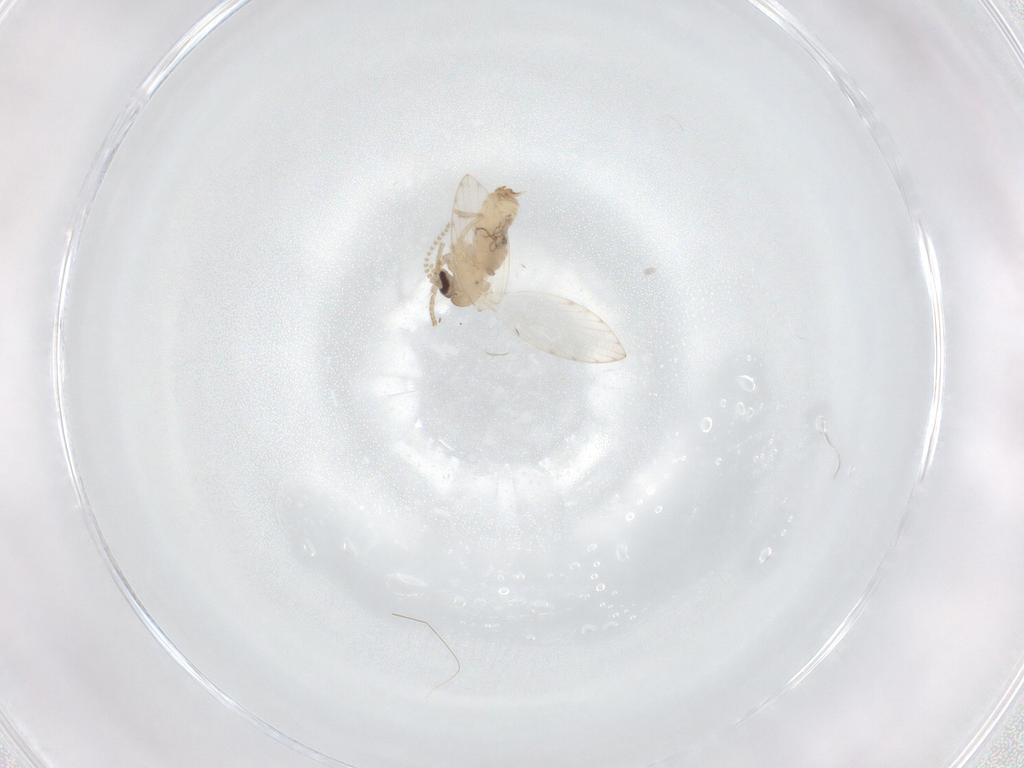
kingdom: Animalia
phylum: Arthropoda
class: Insecta
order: Diptera
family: Psychodidae
